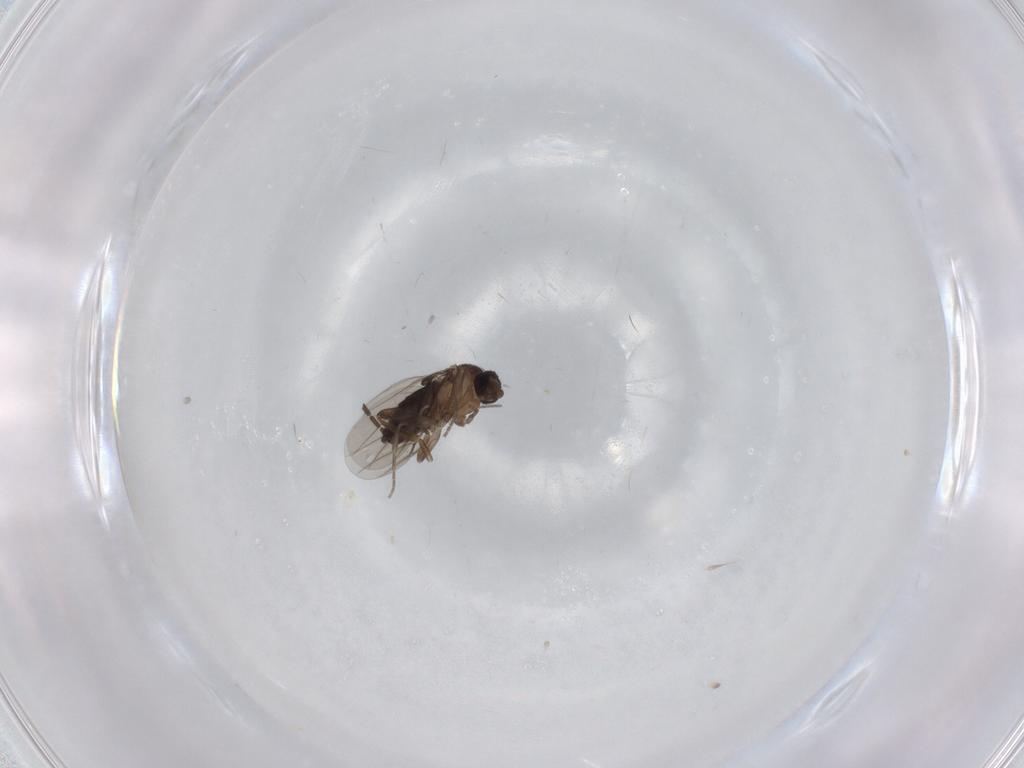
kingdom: Animalia
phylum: Arthropoda
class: Insecta
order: Diptera
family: Phoridae
